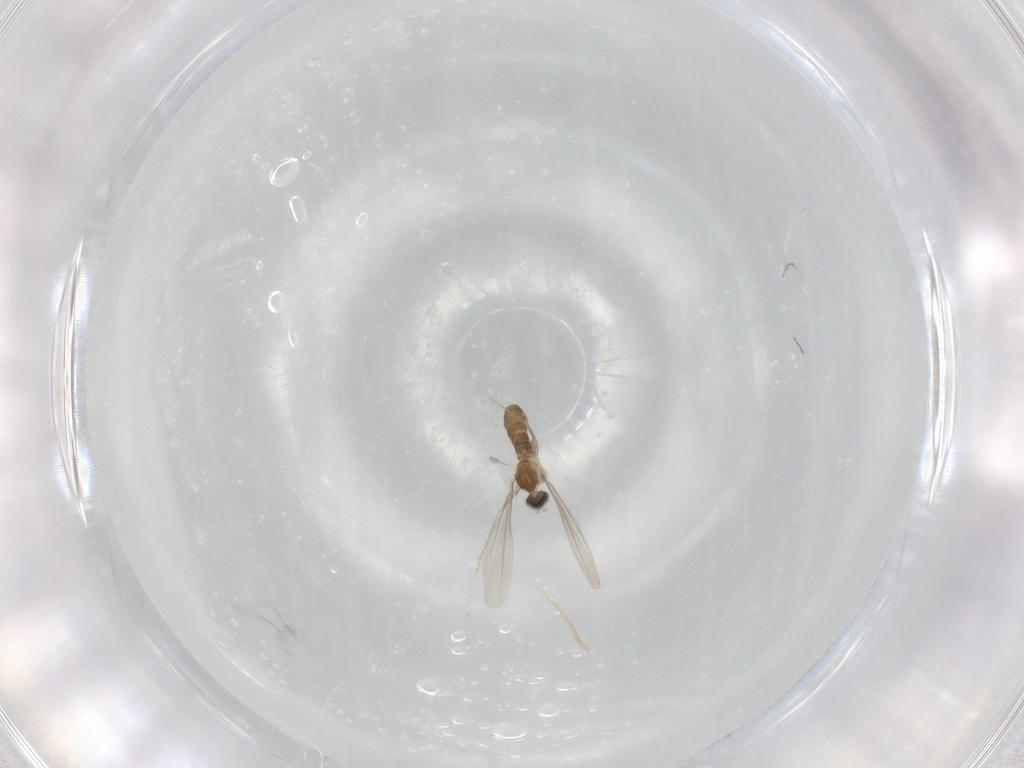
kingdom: Animalia
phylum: Arthropoda
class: Insecta
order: Diptera
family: Cecidomyiidae
